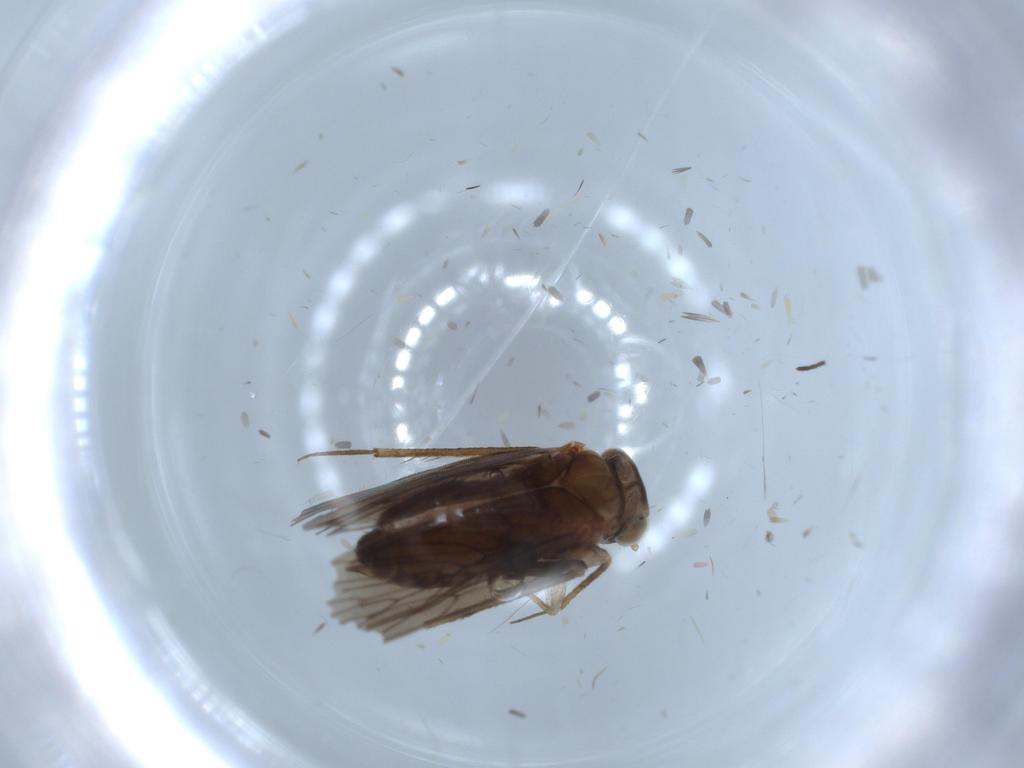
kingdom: Animalia
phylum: Arthropoda
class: Insecta
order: Psocodea
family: Lepidopsocidae
